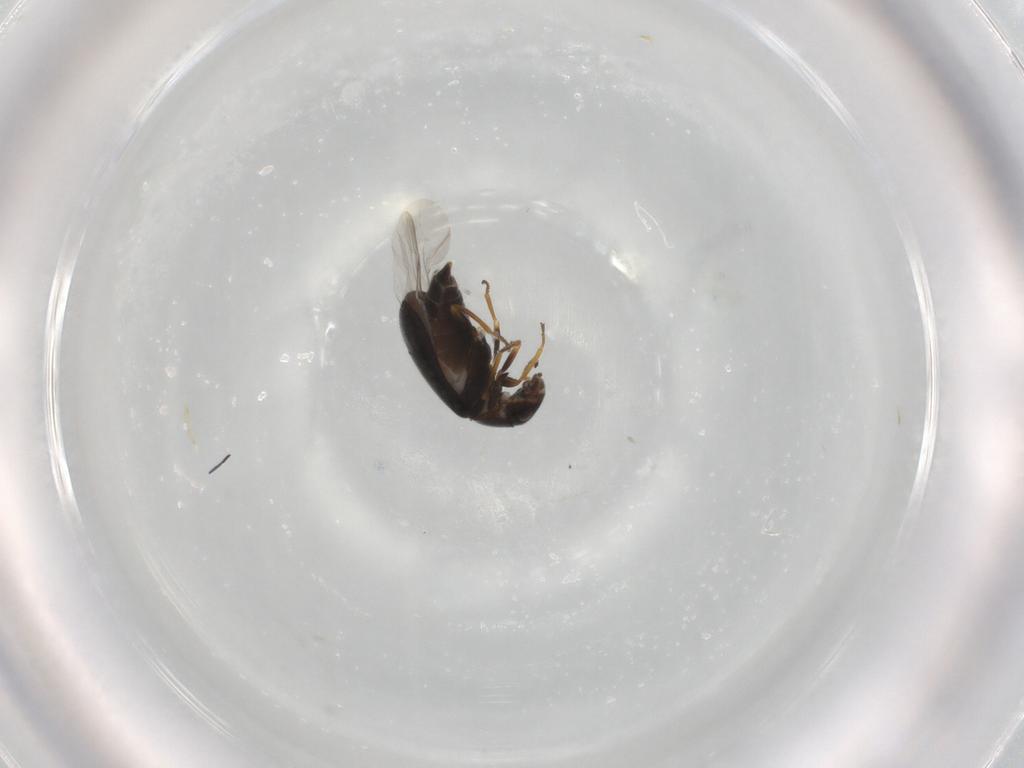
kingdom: Animalia
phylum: Arthropoda
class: Insecta
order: Coleoptera
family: Melyridae
